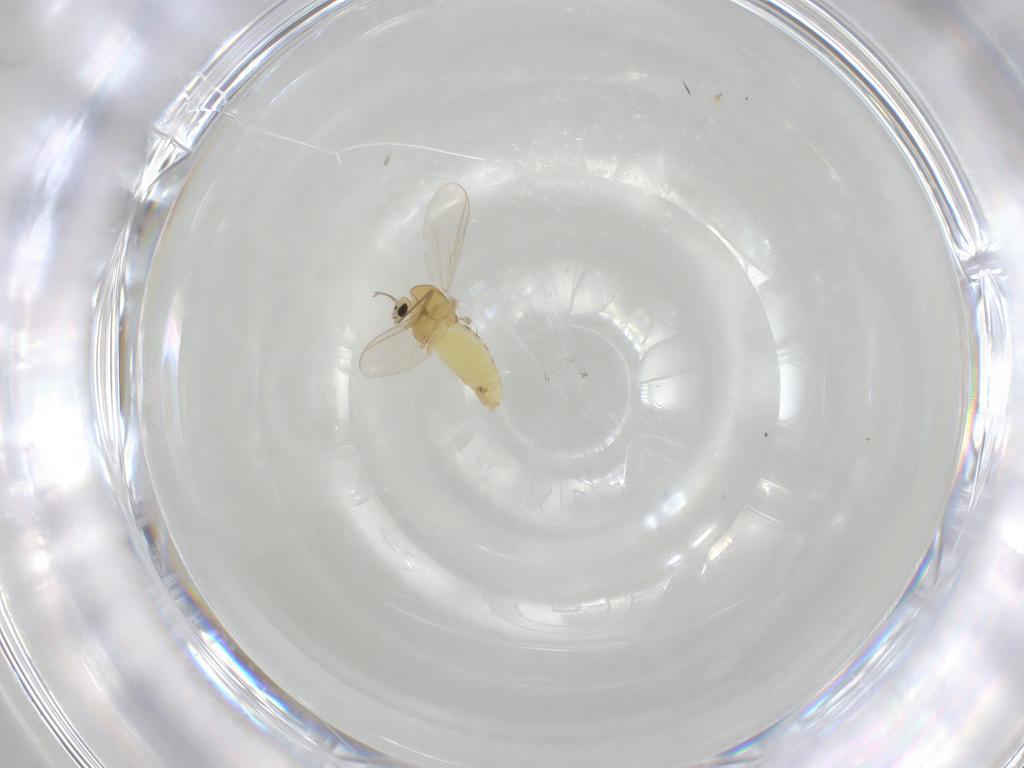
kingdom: Animalia
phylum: Arthropoda
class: Insecta
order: Diptera
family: Chironomidae
